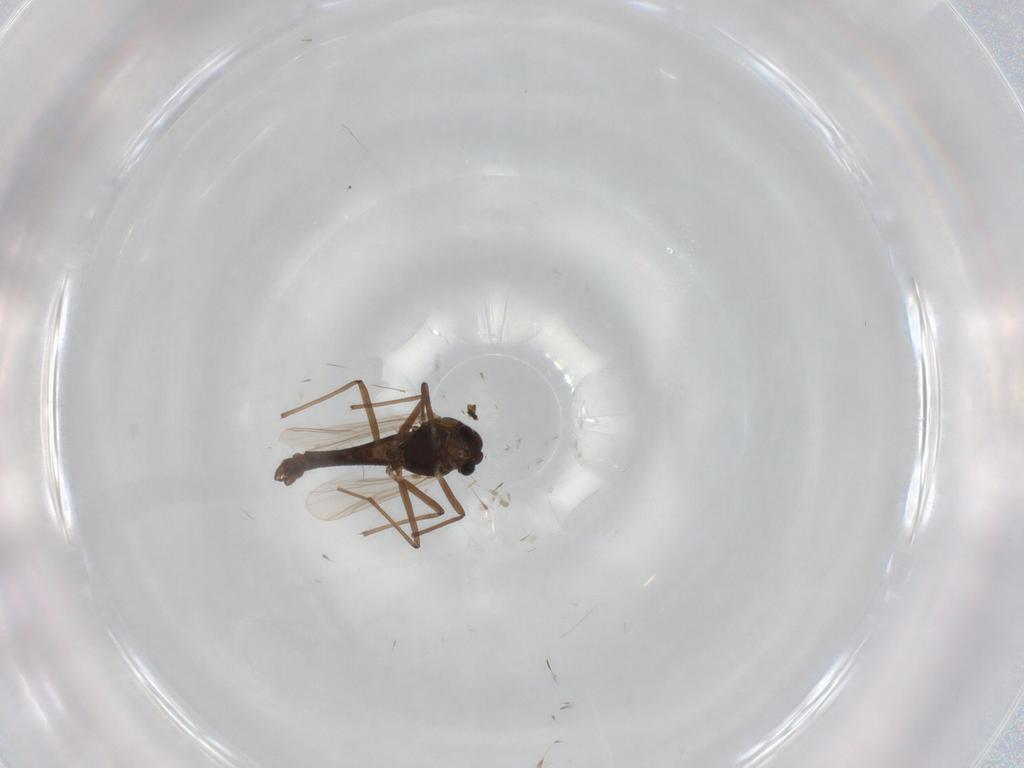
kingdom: Animalia
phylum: Arthropoda
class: Insecta
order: Diptera
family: Chironomidae
